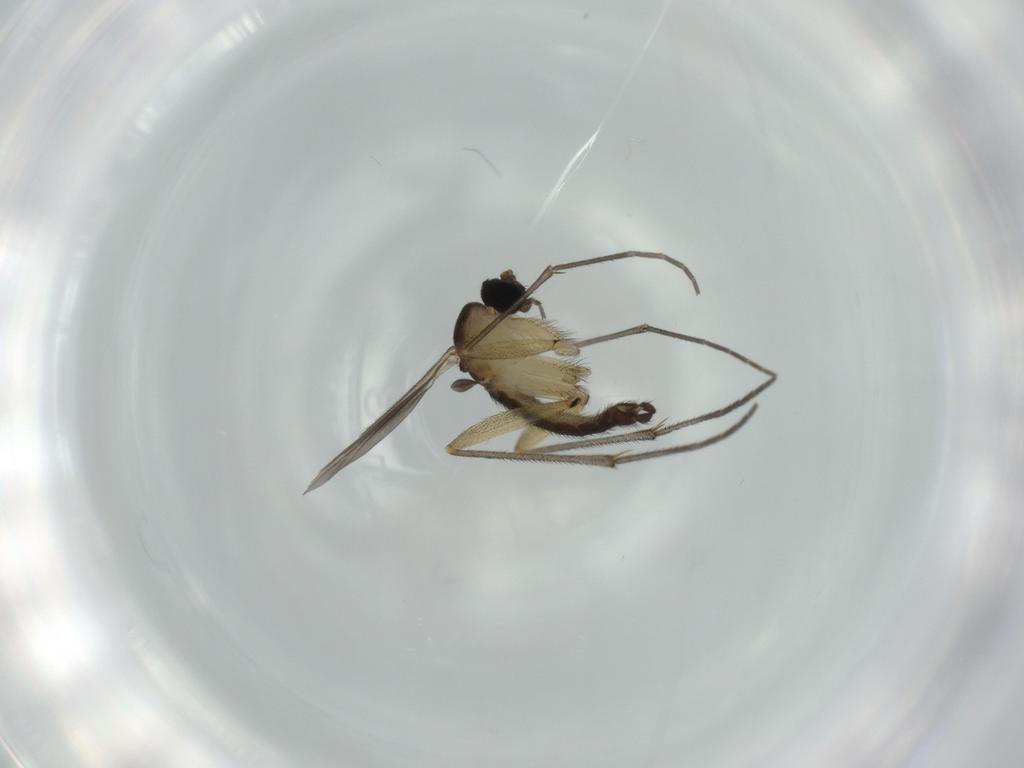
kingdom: Animalia
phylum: Arthropoda
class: Insecta
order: Diptera
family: Sciaridae
